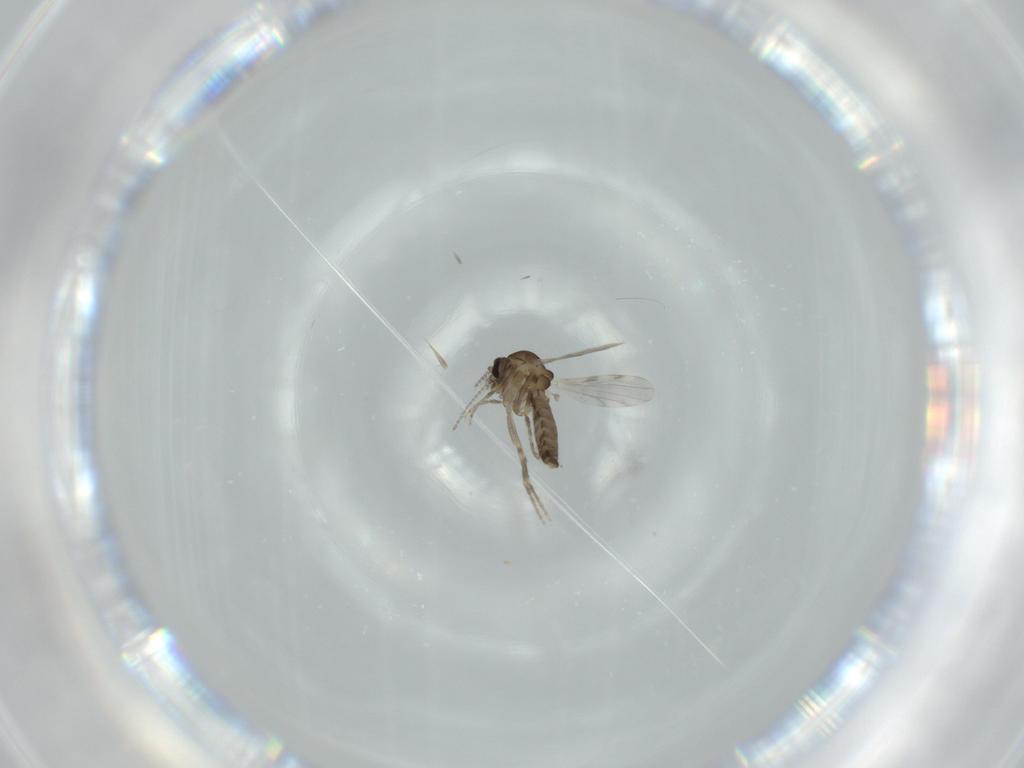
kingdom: Animalia
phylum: Arthropoda
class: Insecta
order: Diptera
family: Ceratopogonidae
